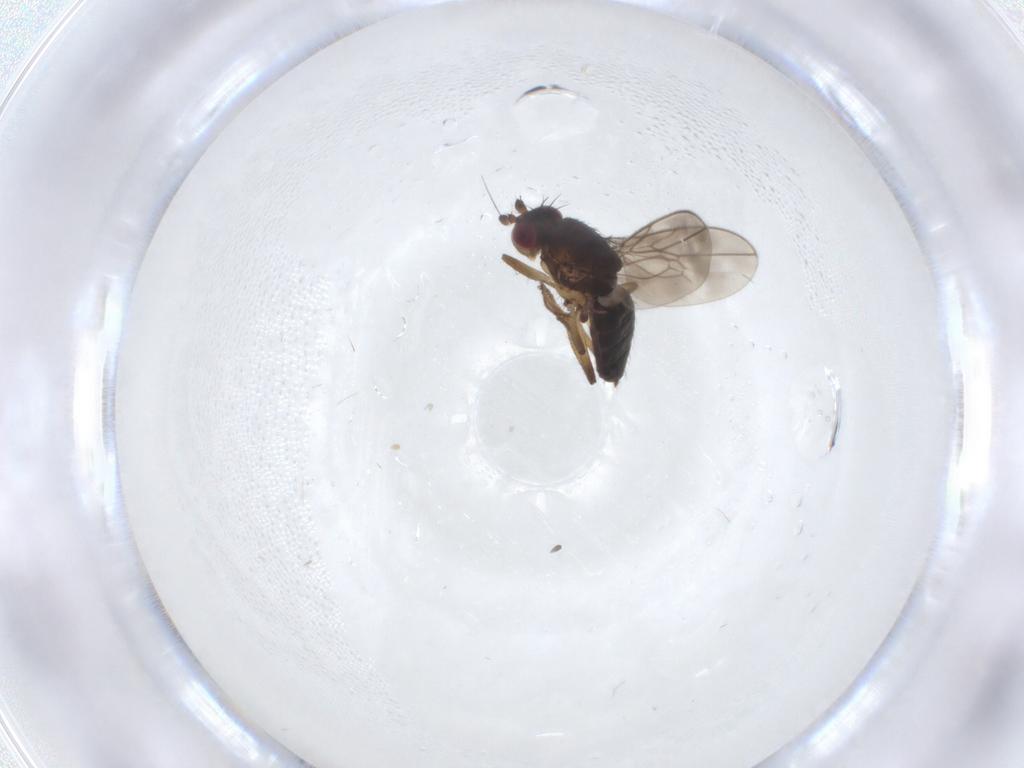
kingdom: Animalia
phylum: Arthropoda
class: Insecta
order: Diptera
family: Sphaeroceridae
